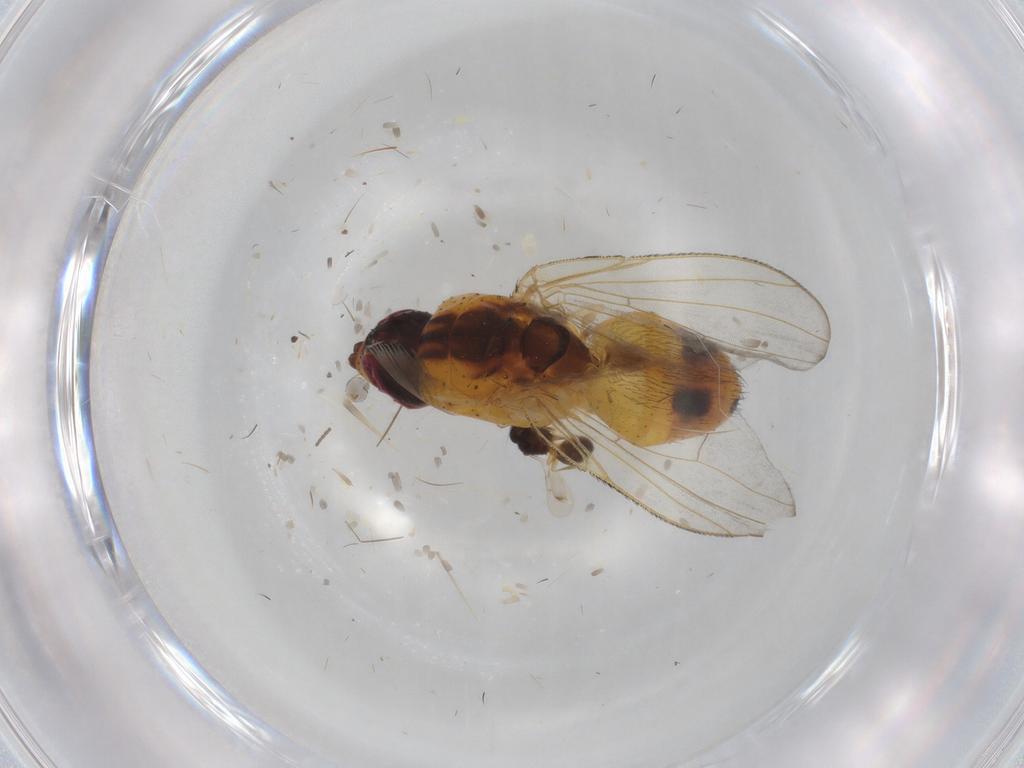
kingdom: Animalia
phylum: Arthropoda
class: Insecta
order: Diptera
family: Muscidae
